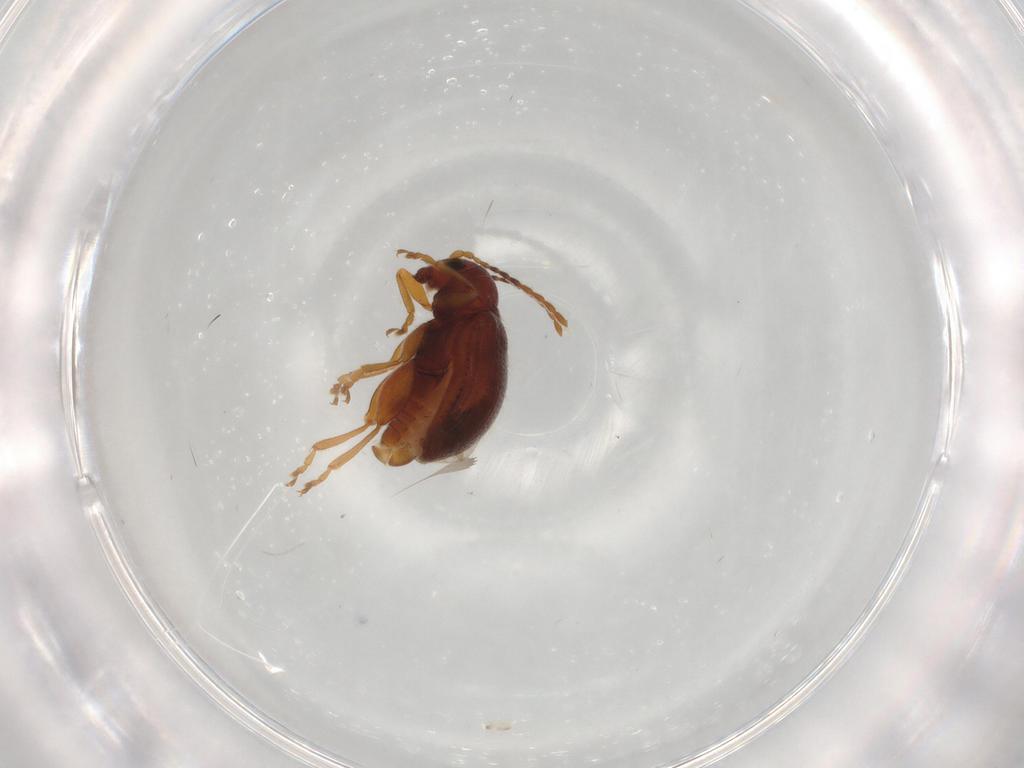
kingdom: Animalia
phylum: Arthropoda
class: Insecta
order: Coleoptera
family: Chrysomelidae
